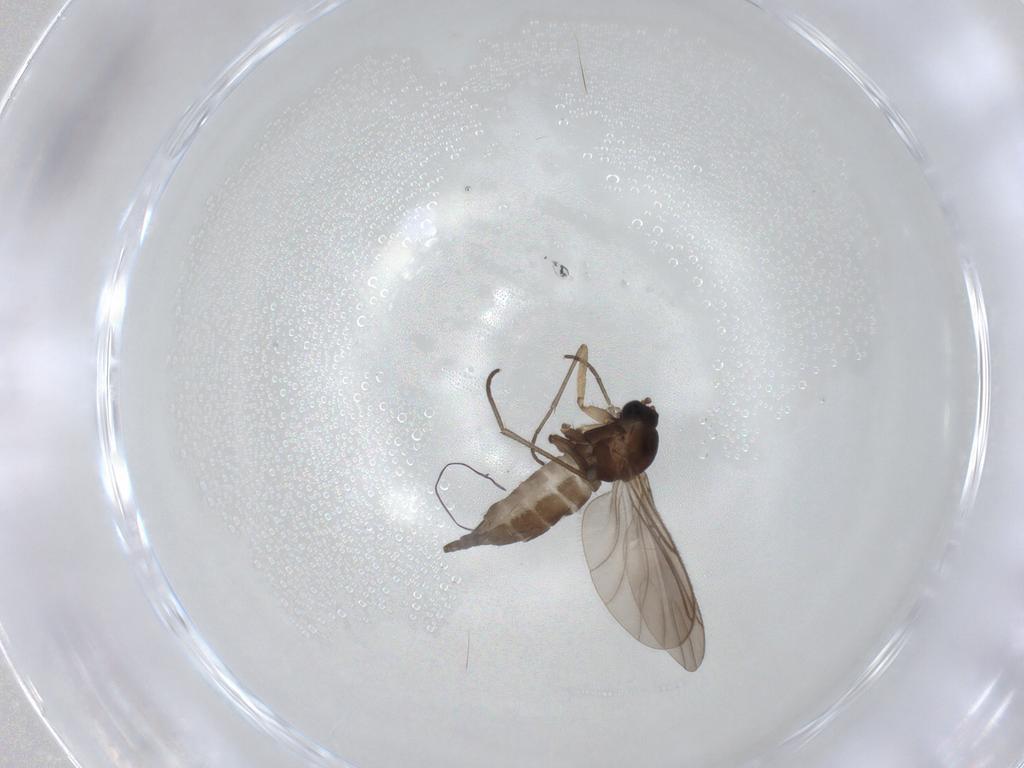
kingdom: Animalia
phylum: Arthropoda
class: Insecta
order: Diptera
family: Sciaridae
